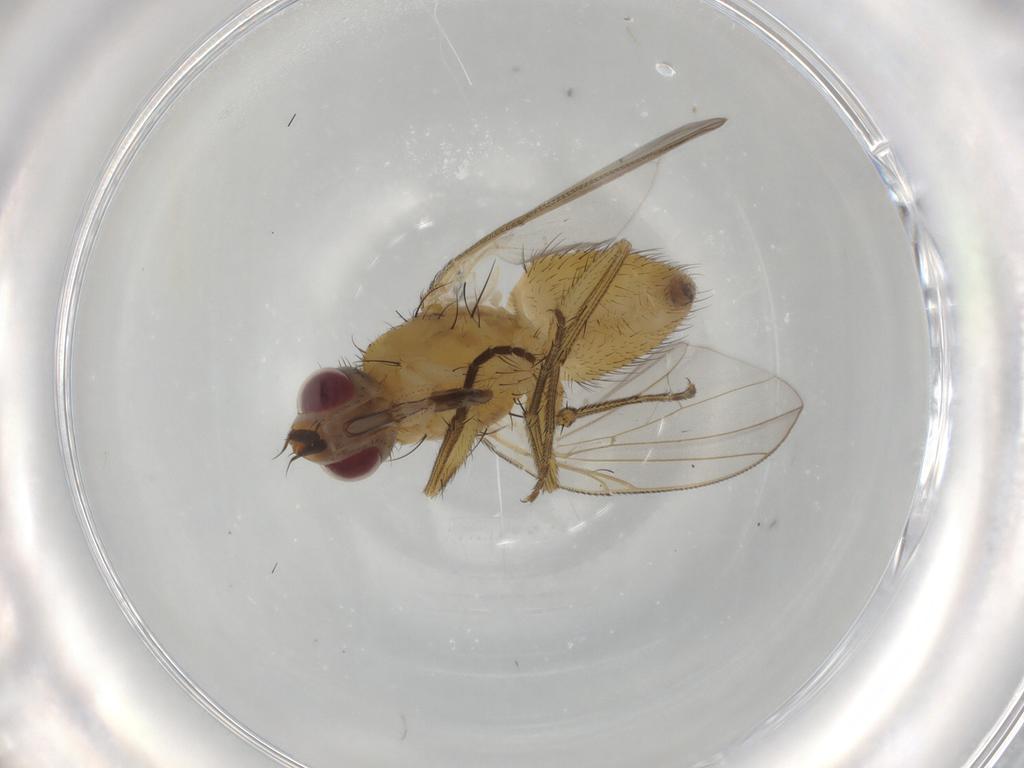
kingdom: Animalia
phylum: Arthropoda
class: Insecta
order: Diptera
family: Muscidae
